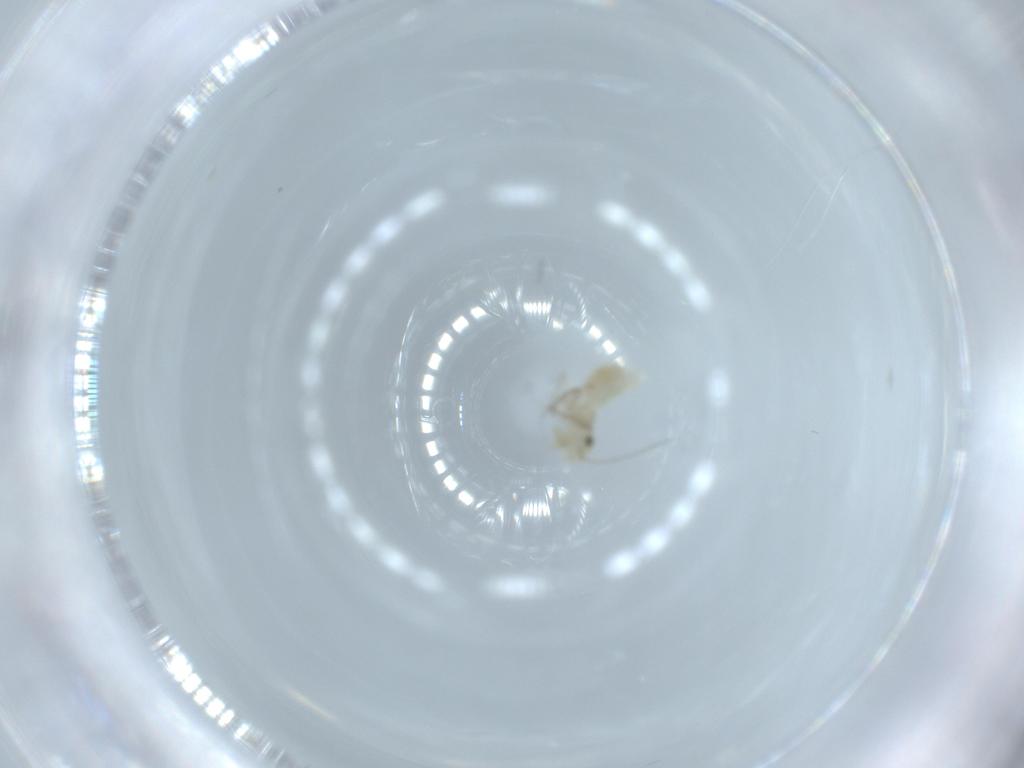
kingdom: Animalia
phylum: Arthropoda
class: Insecta
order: Psocodea
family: Caeciliusidae
